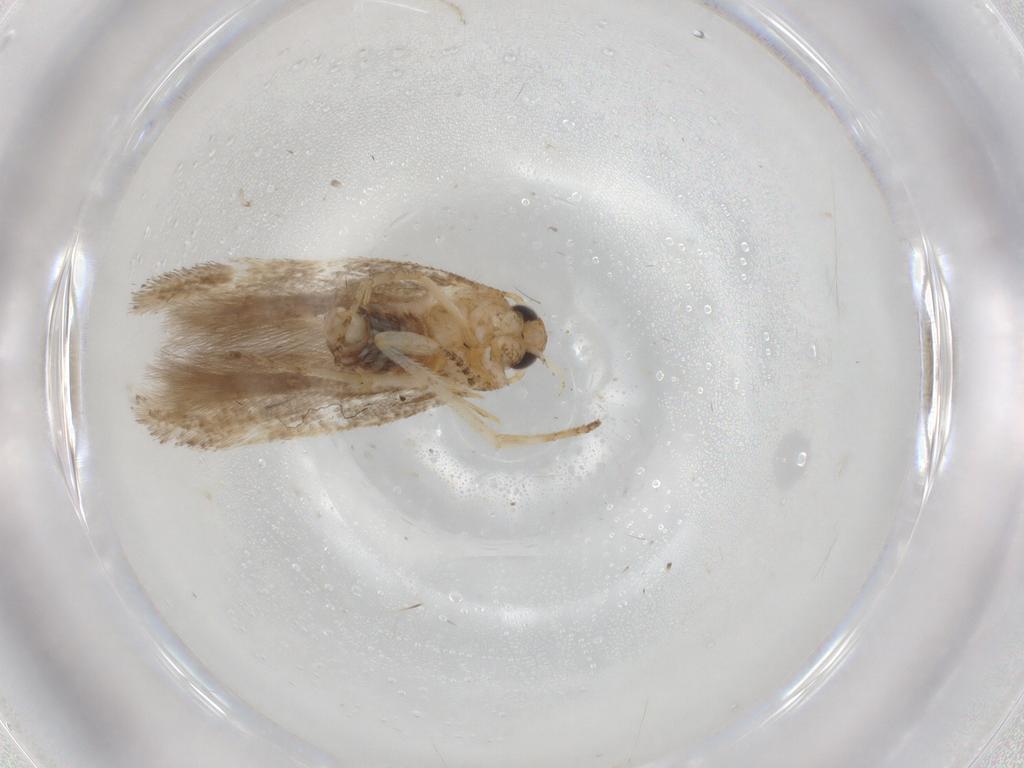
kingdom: Animalia
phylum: Arthropoda
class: Insecta
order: Lepidoptera
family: Gelechiidae
